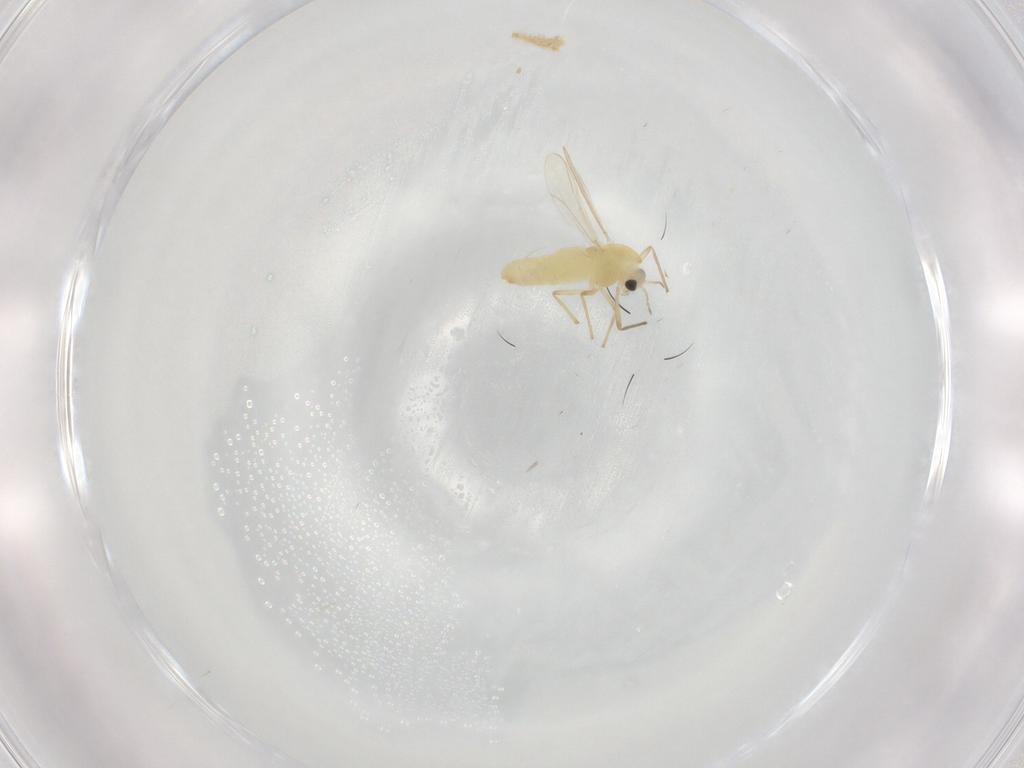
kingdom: Animalia
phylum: Arthropoda
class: Insecta
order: Diptera
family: Chironomidae
